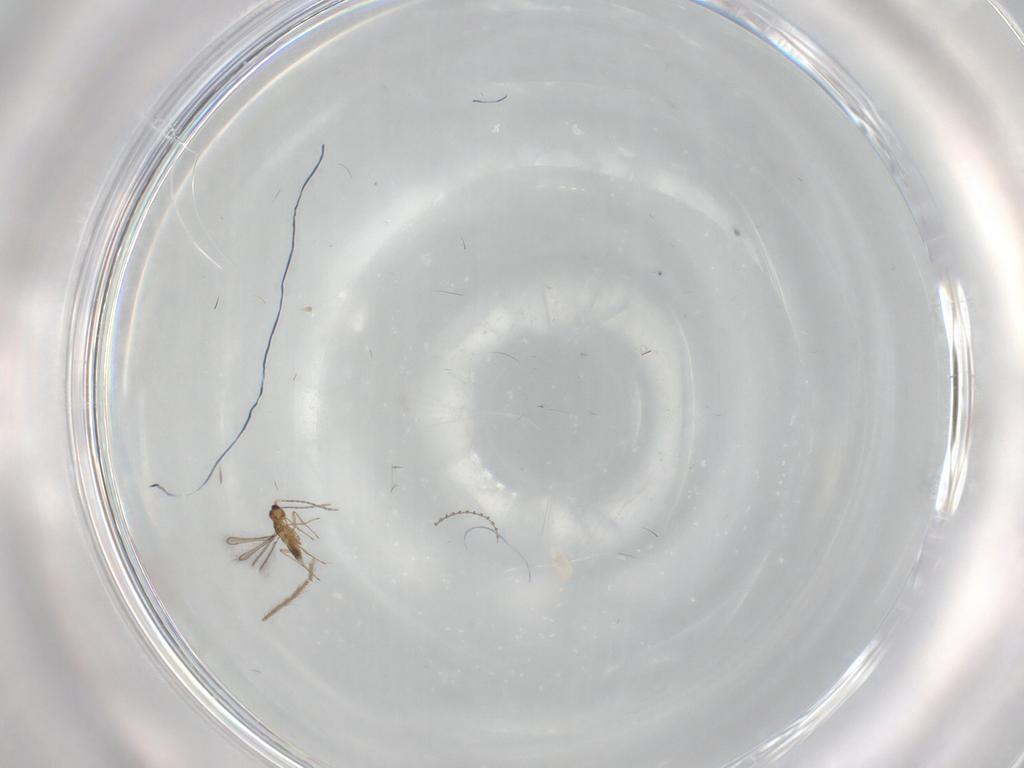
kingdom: Animalia
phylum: Arthropoda
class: Insecta
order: Hymenoptera
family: Mymaridae
